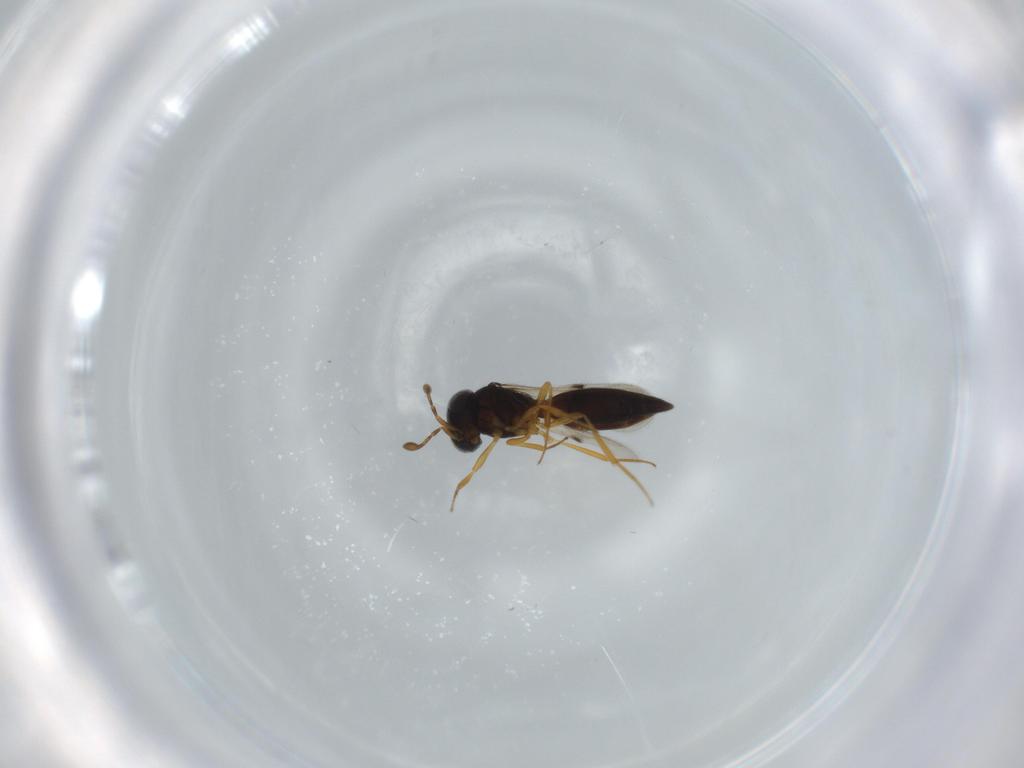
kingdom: Animalia
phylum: Arthropoda
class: Insecta
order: Hymenoptera
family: Scelionidae
